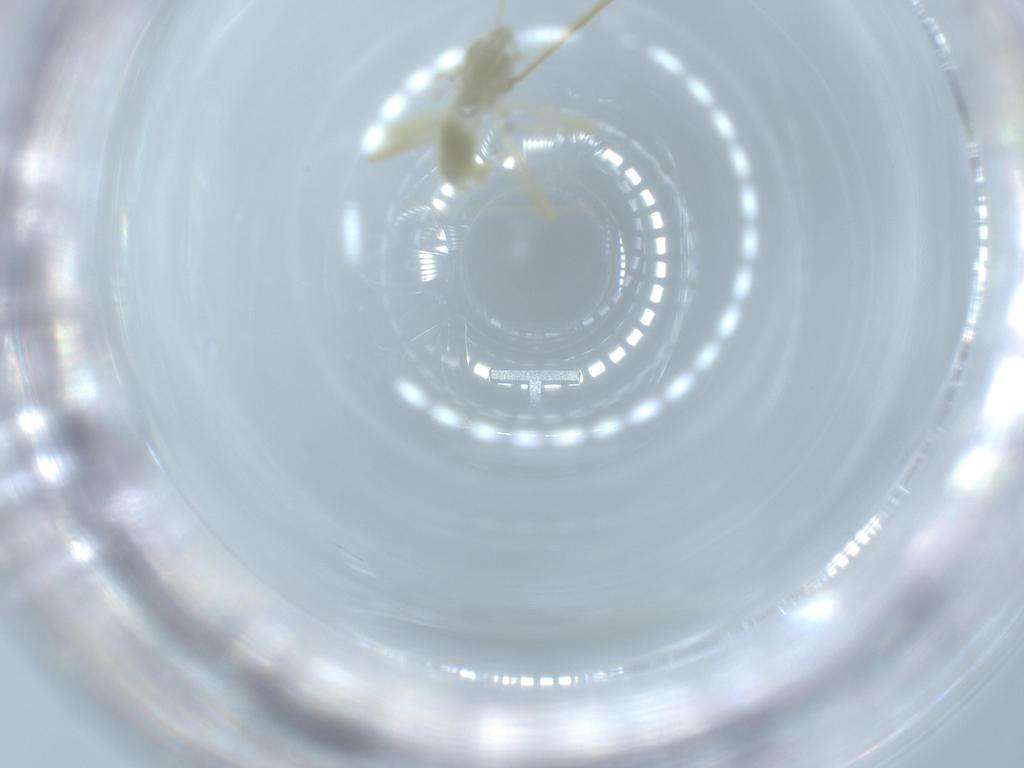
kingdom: Animalia
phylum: Arthropoda
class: Insecta
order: Diptera
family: Chironomidae
